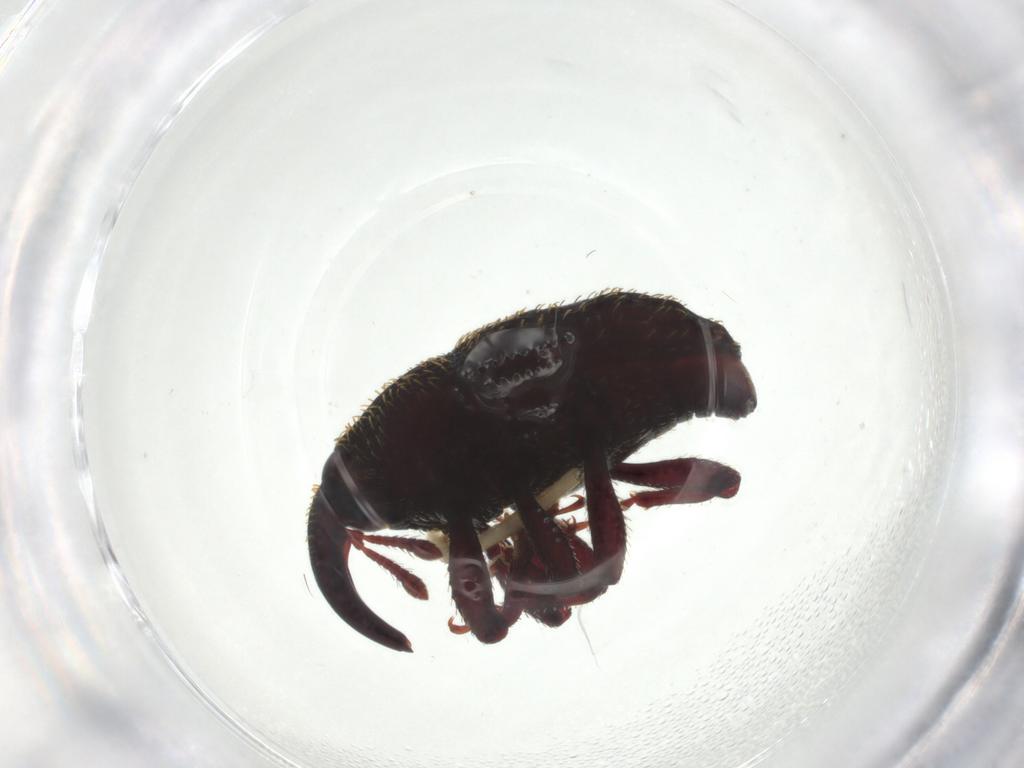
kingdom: Animalia
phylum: Arthropoda
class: Insecta
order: Coleoptera
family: Curculionidae
